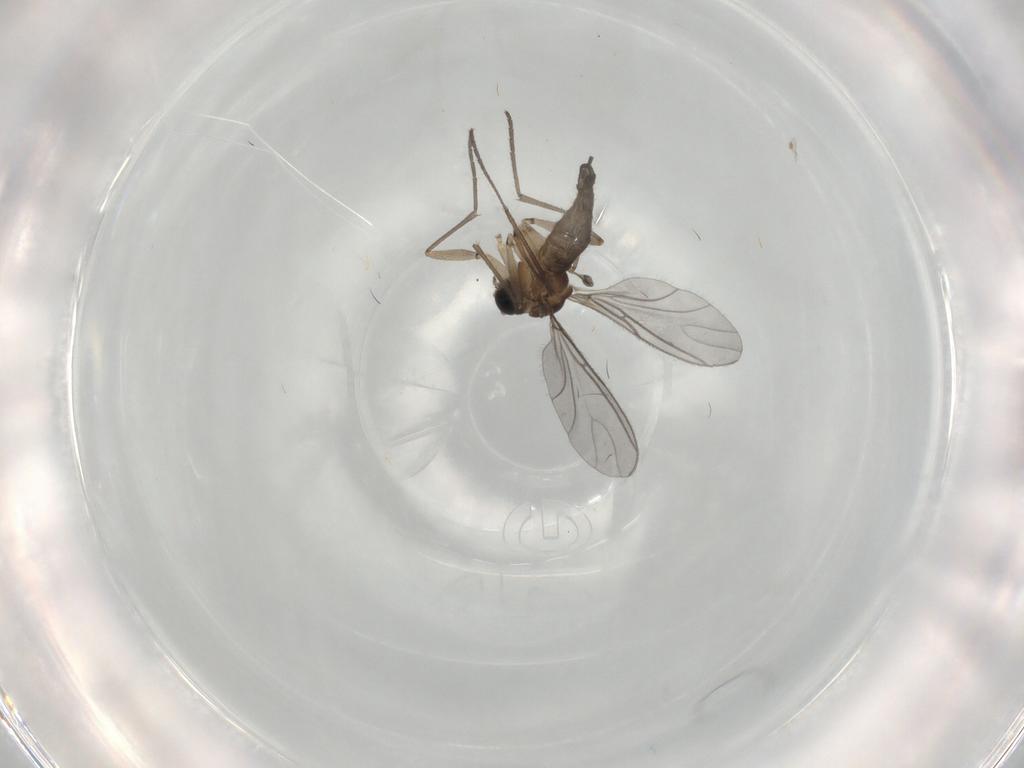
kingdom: Animalia
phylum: Arthropoda
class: Insecta
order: Diptera
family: Sciaridae
